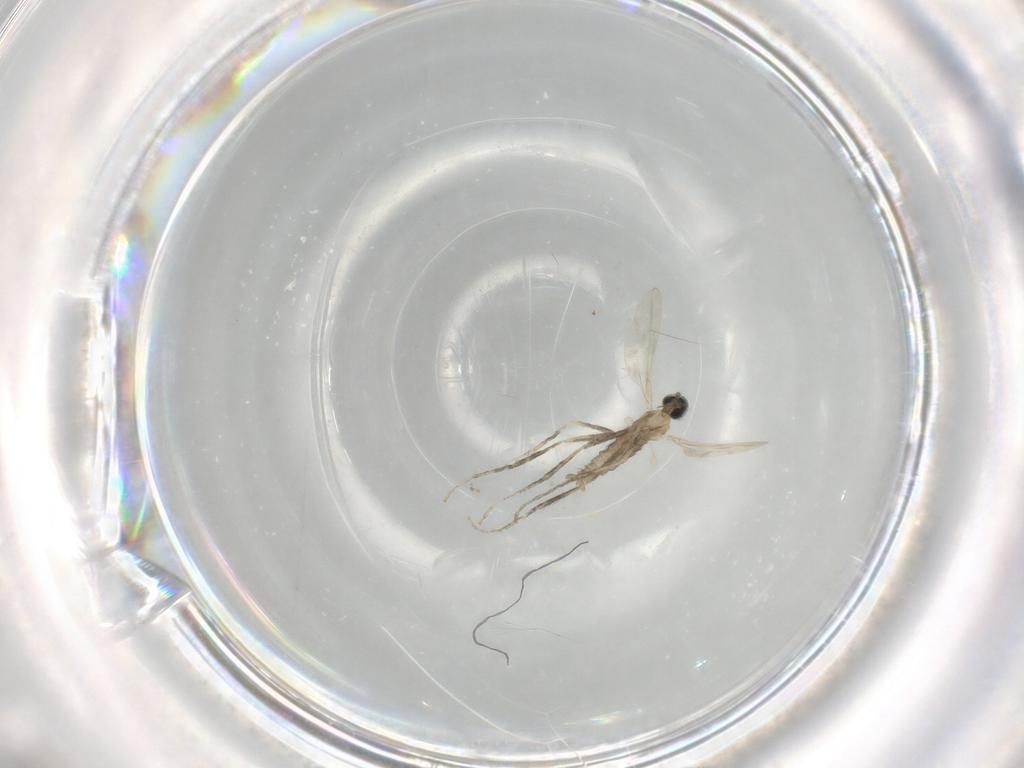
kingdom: Animalia
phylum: Arthropoda
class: Insecta
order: Diptera
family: Cecidomyiidae
